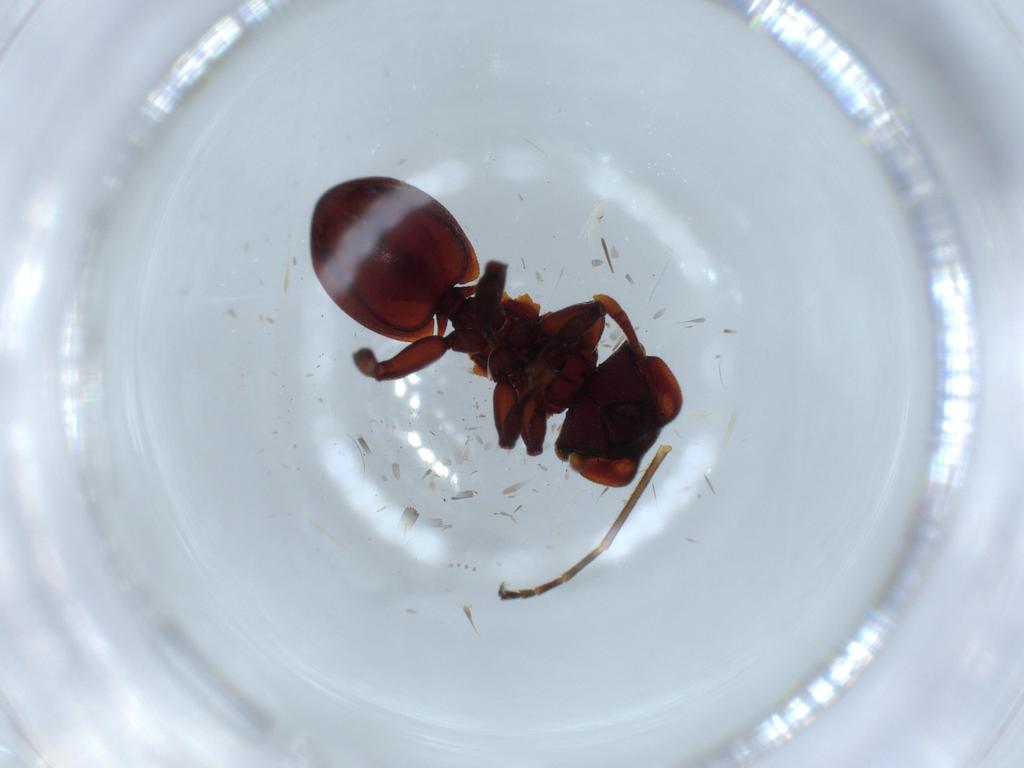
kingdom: Animalia
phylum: Arthropoda
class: Insecta
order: Hymenoptera
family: Formicidae
